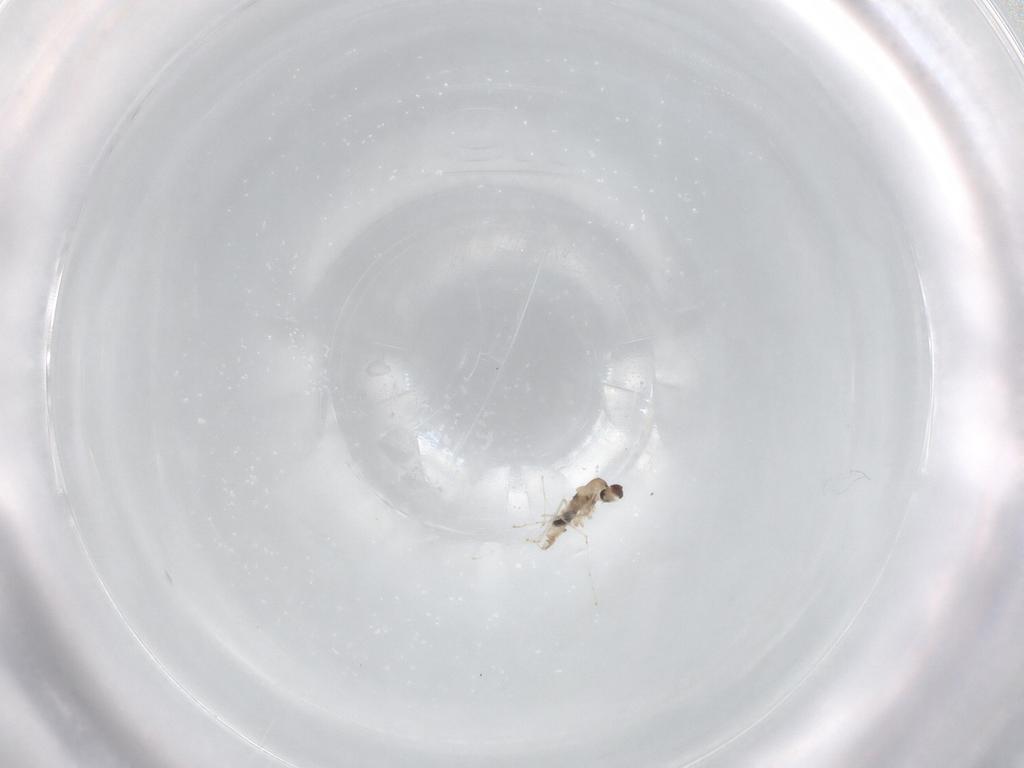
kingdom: Animalia
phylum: Arthropoda
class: Insecta
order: Diptera
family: Cecidomyiidae
